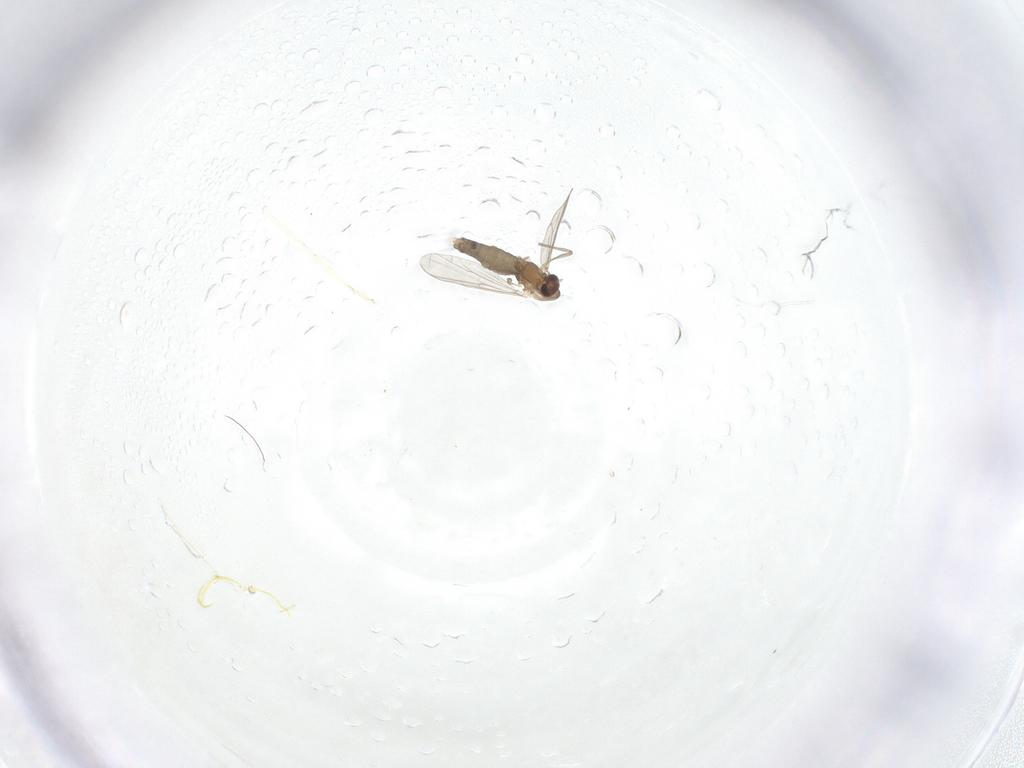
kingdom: Animalia
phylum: Arthropoda
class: Insecta
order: Diptera
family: Chironomidae
